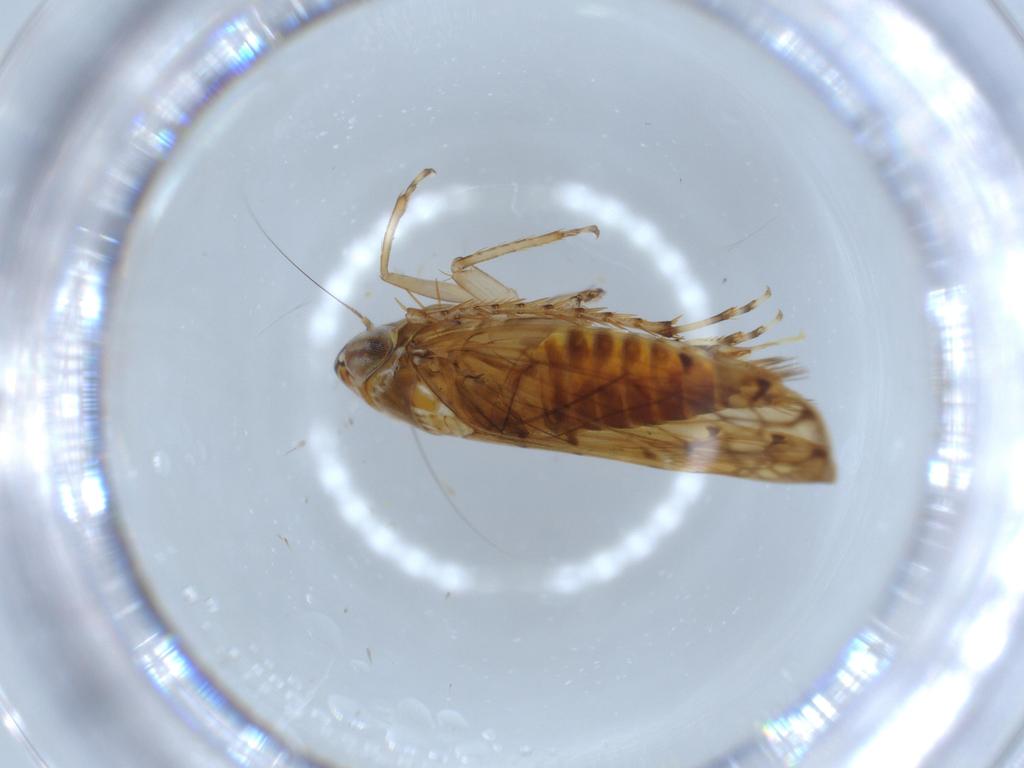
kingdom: Animalia
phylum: Arthropoda
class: Insecta
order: Hemiptera
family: Cicadellidae
